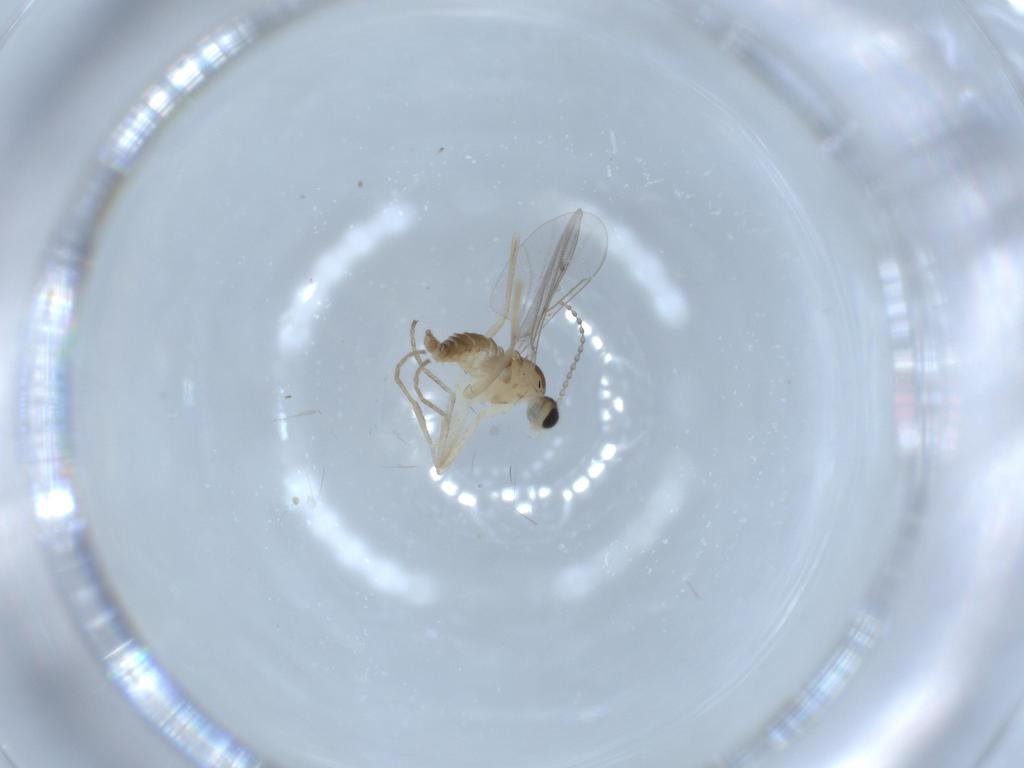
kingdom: Animalia
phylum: Arthropoda
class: Insecta
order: Diptera
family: Cecidomyiidae
